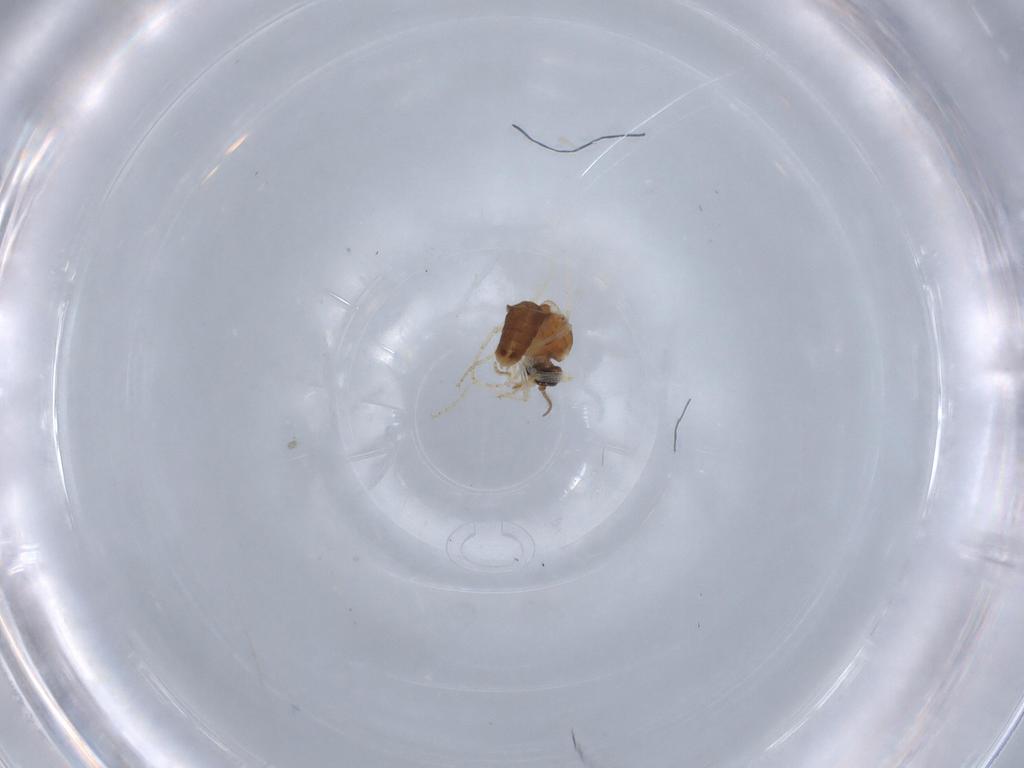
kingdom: Animalia
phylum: Arthropoda
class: Insecta
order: Diptera
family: Ceratopogonidae
